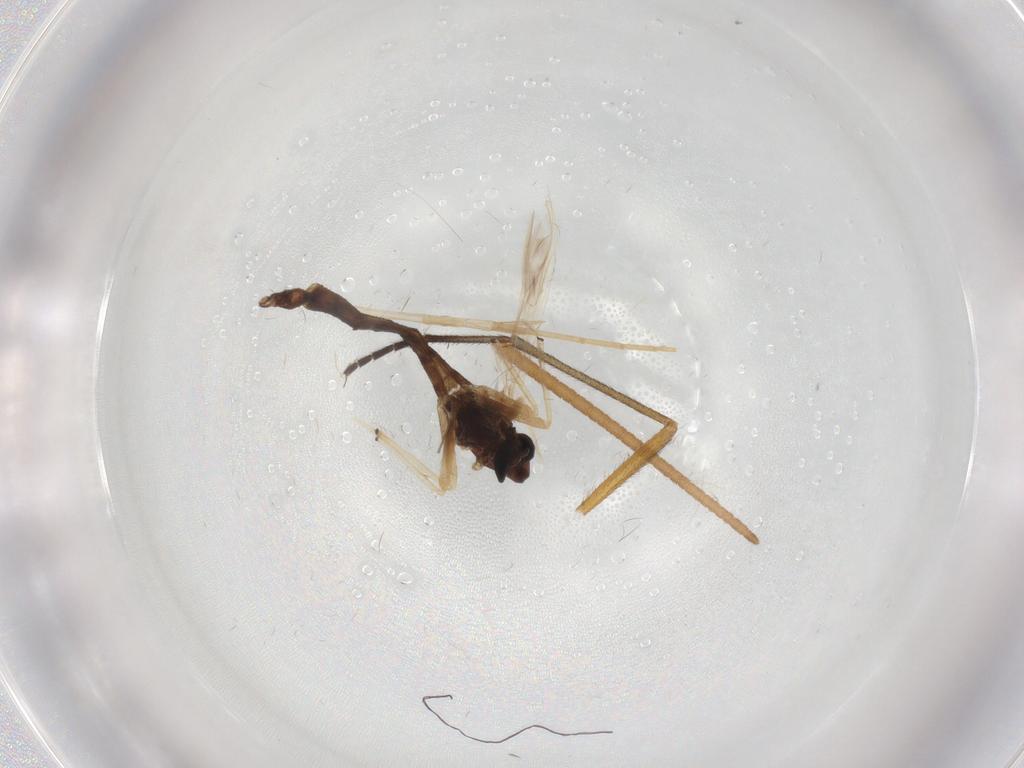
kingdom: Animalia
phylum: Arthropoda
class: Insecta
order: Diptera
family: Chironomidae
